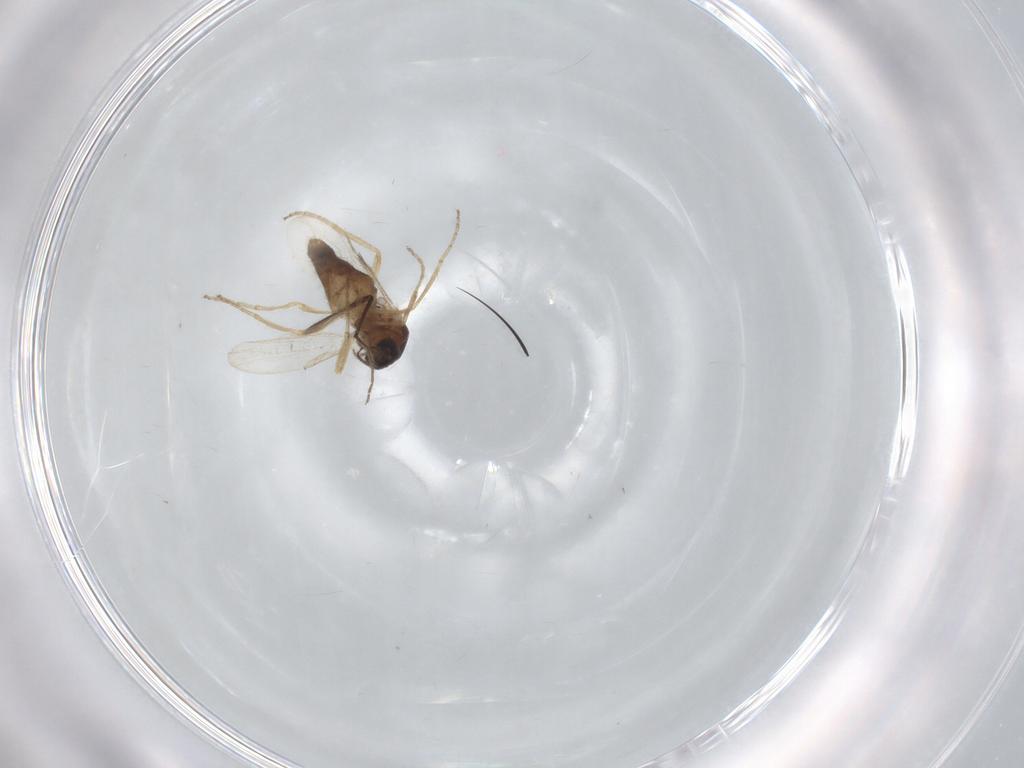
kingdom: Animalia
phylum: Arthropoda
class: Insecta
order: Diptera
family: Chironomidae
